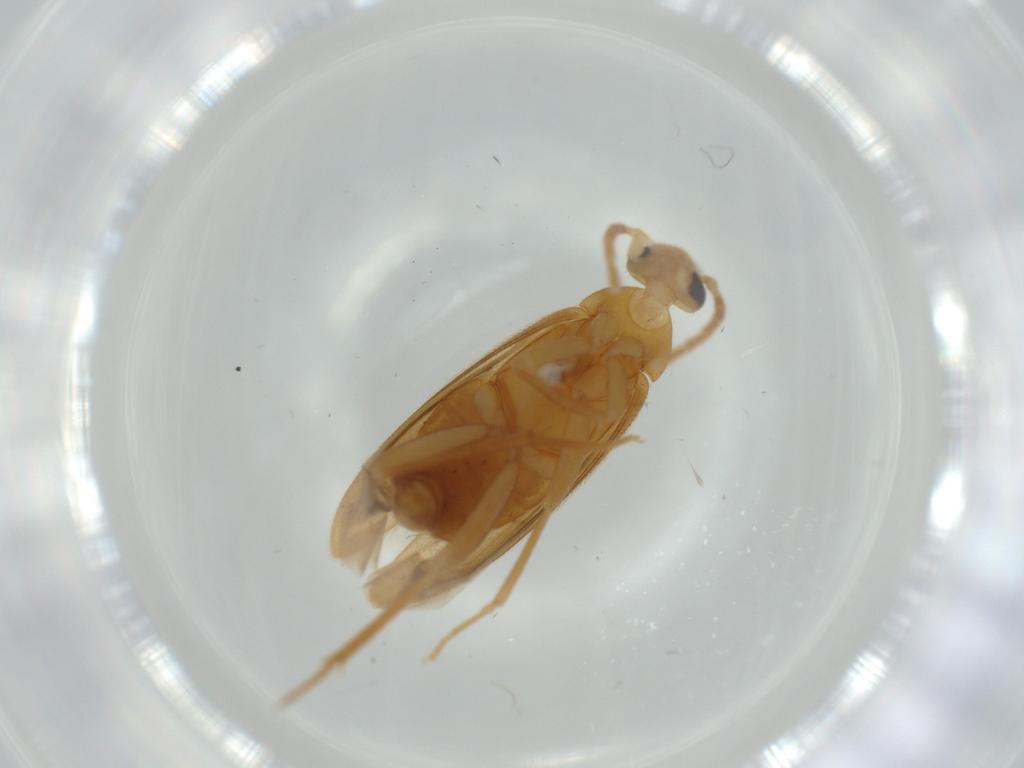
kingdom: Animalia
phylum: Arthropoda
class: Insecta
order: Coleoptera
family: Scraptiidae
